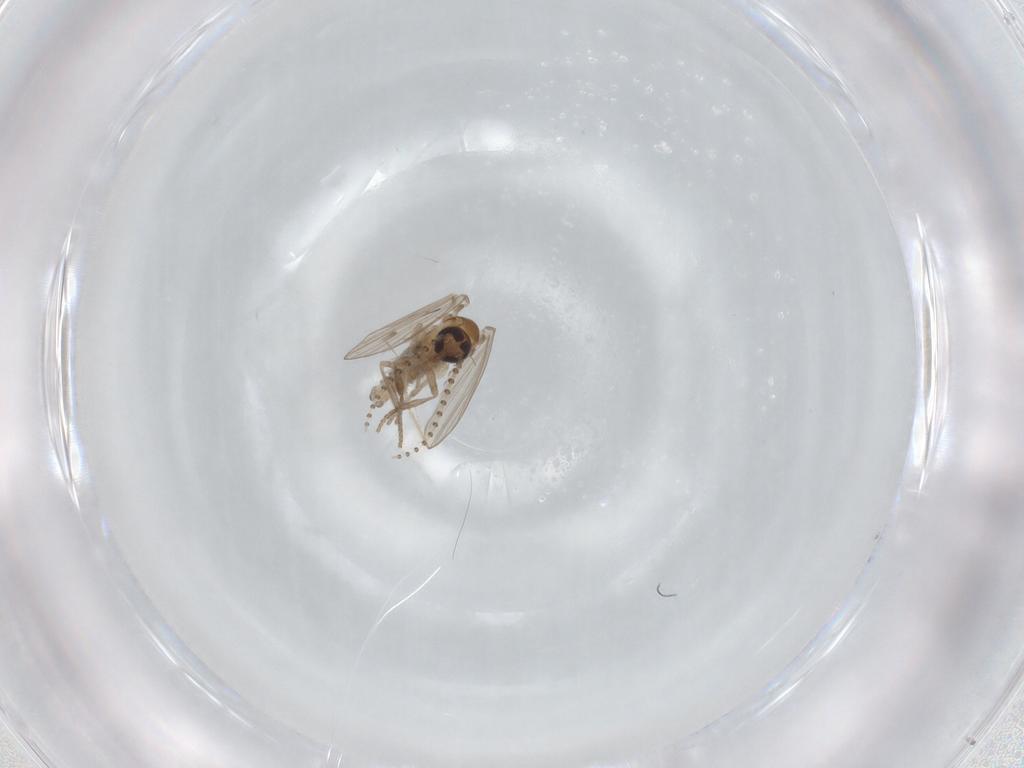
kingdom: Animalia
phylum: Arthropoda
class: Insecta
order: Diptera
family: Psychodidae
